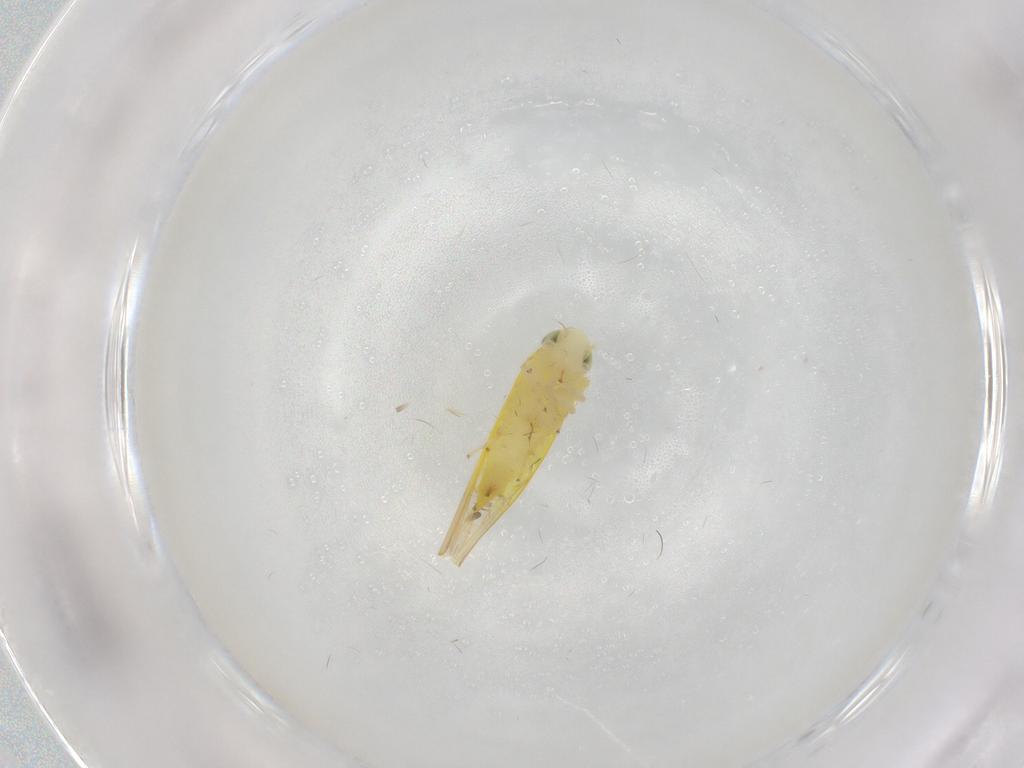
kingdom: Animalia
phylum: Arthropoda
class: Insecta
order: Hemiptera
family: Cicadellidae
